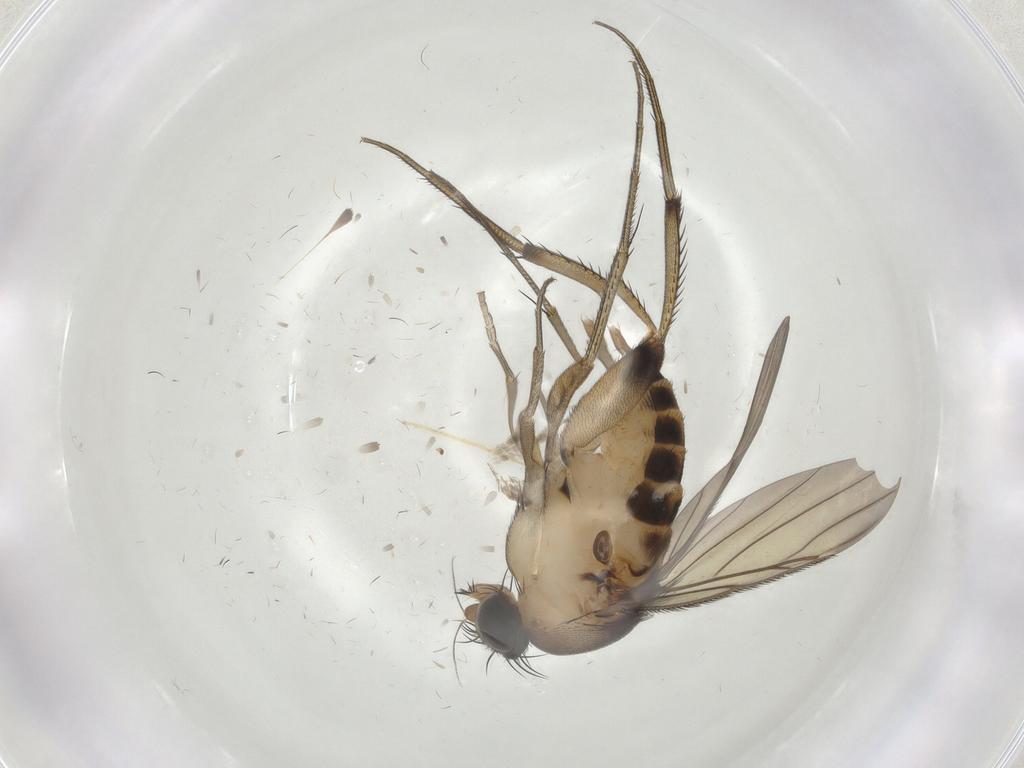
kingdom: Animalia
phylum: Arthropoda
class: Insecta
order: Diptera
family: Phoridae
